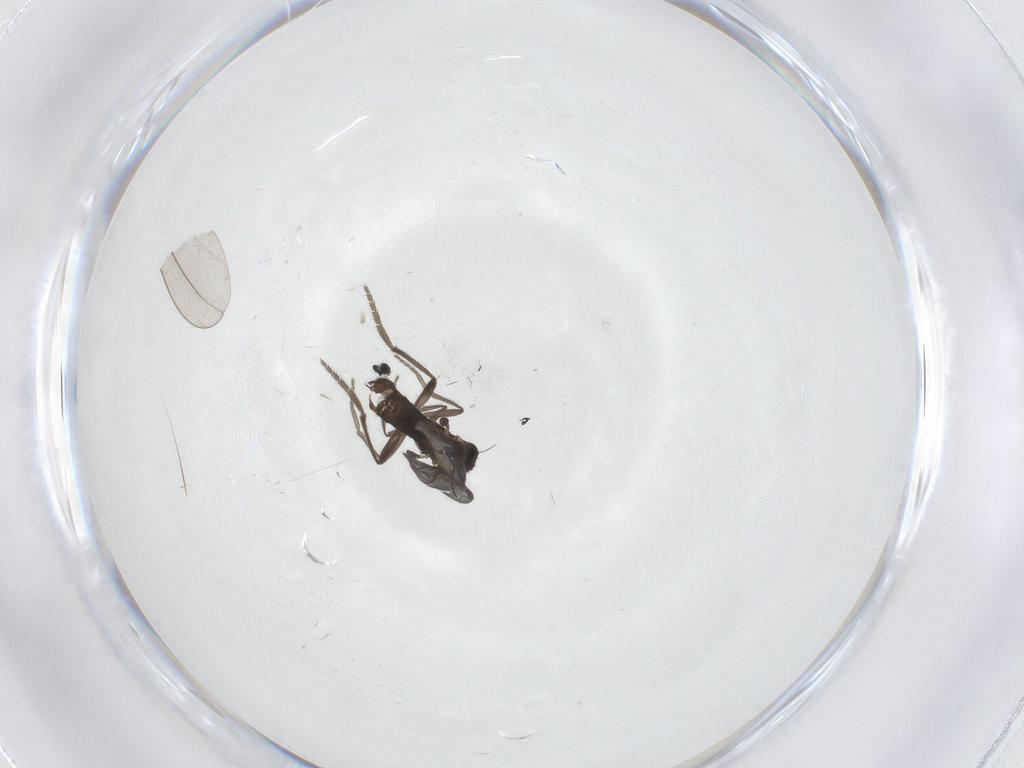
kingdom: Animalia
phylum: Arthropoda
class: Insecta
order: Diptera
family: Phoridae
